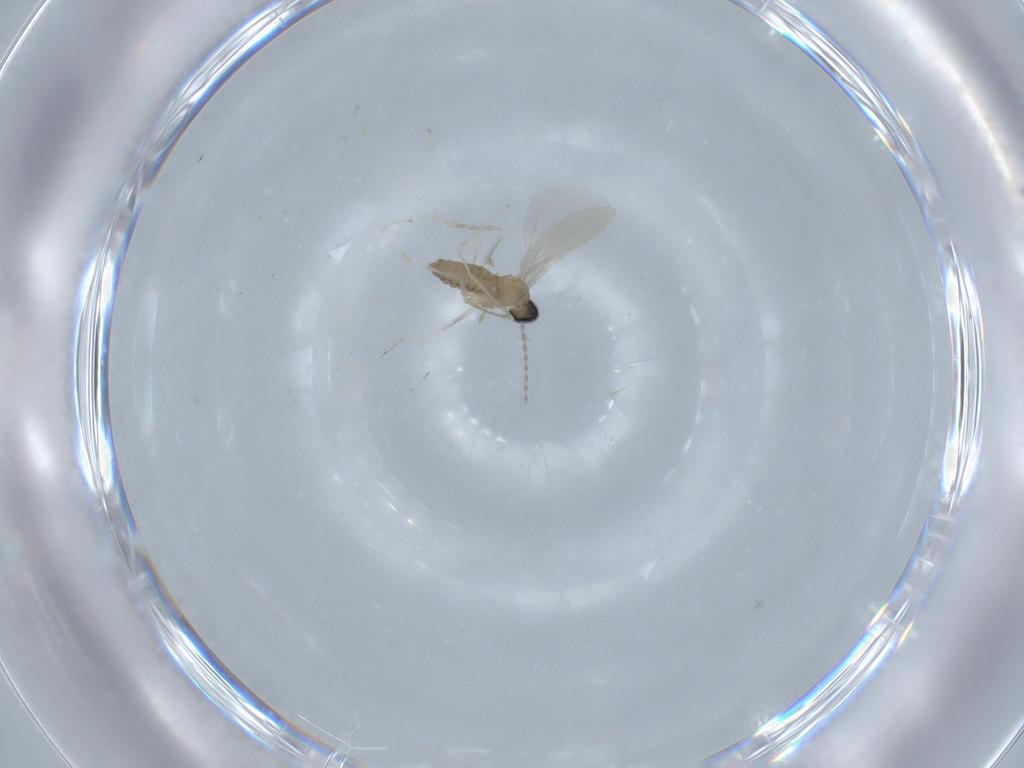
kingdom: Animalia
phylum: Arthropoda
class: Insecta
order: Diptera
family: Cecidomyiidae
